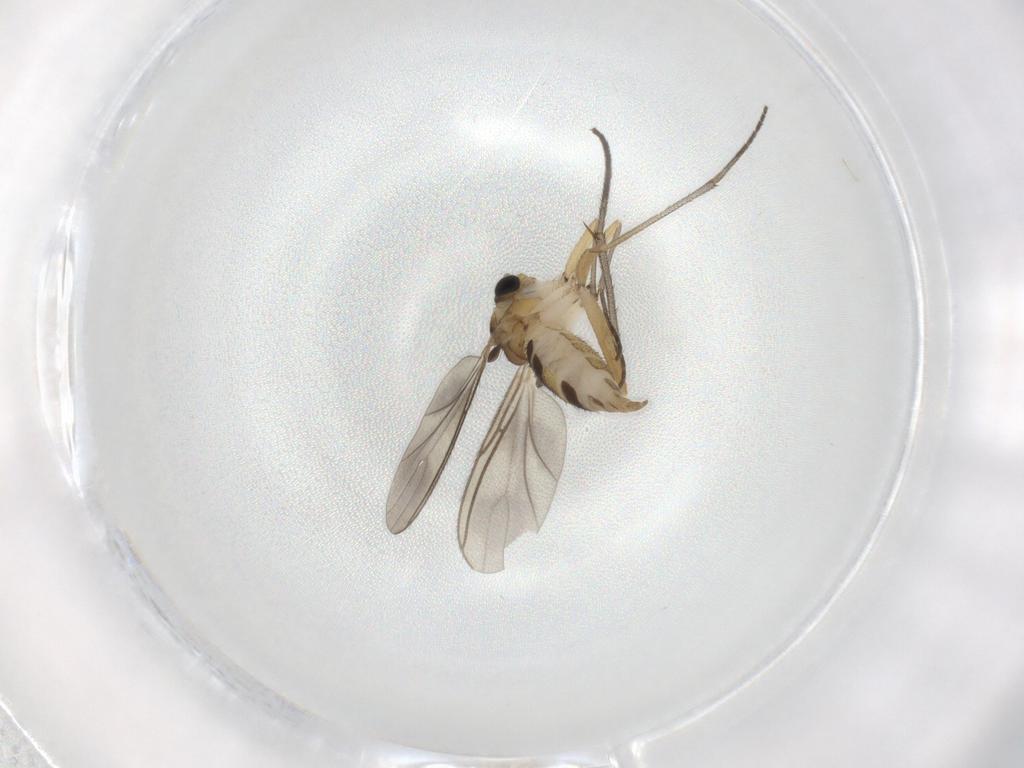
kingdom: Animalia
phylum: Arthropoda
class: Insecta
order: Diptera
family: Sciaridae
